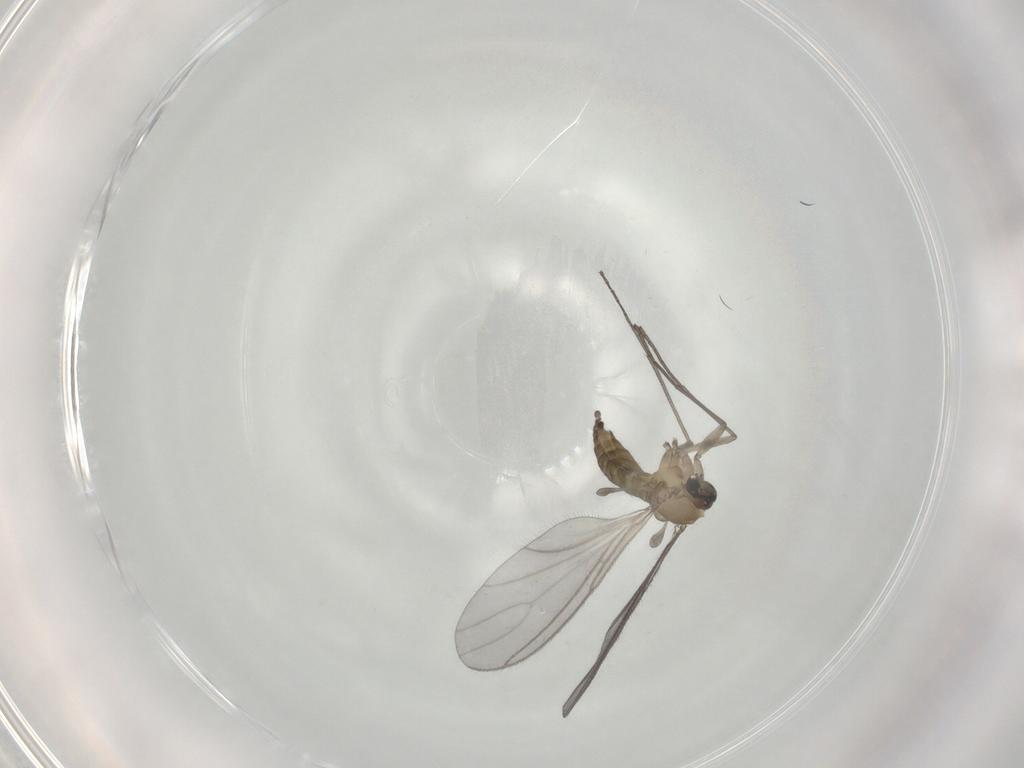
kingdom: Animalia
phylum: Arthropoda
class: Insecta
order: Diptera
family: Sciaridae
